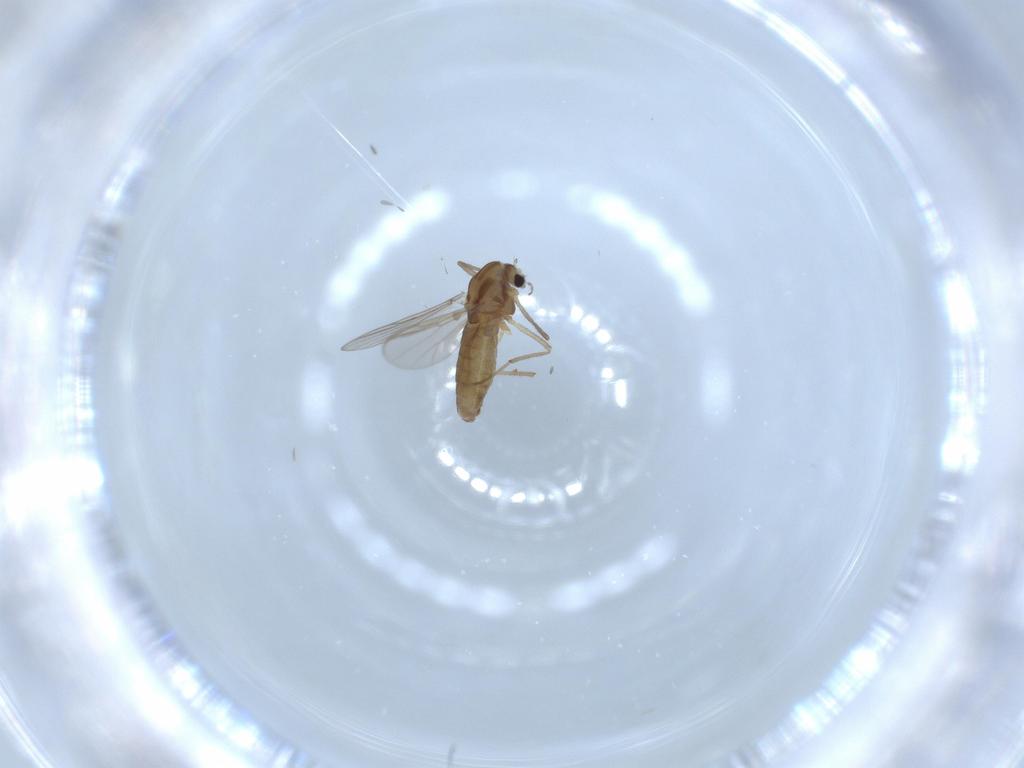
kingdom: Animalia
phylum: Arthropoda
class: Insecta
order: Diptera
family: Chironomidae
